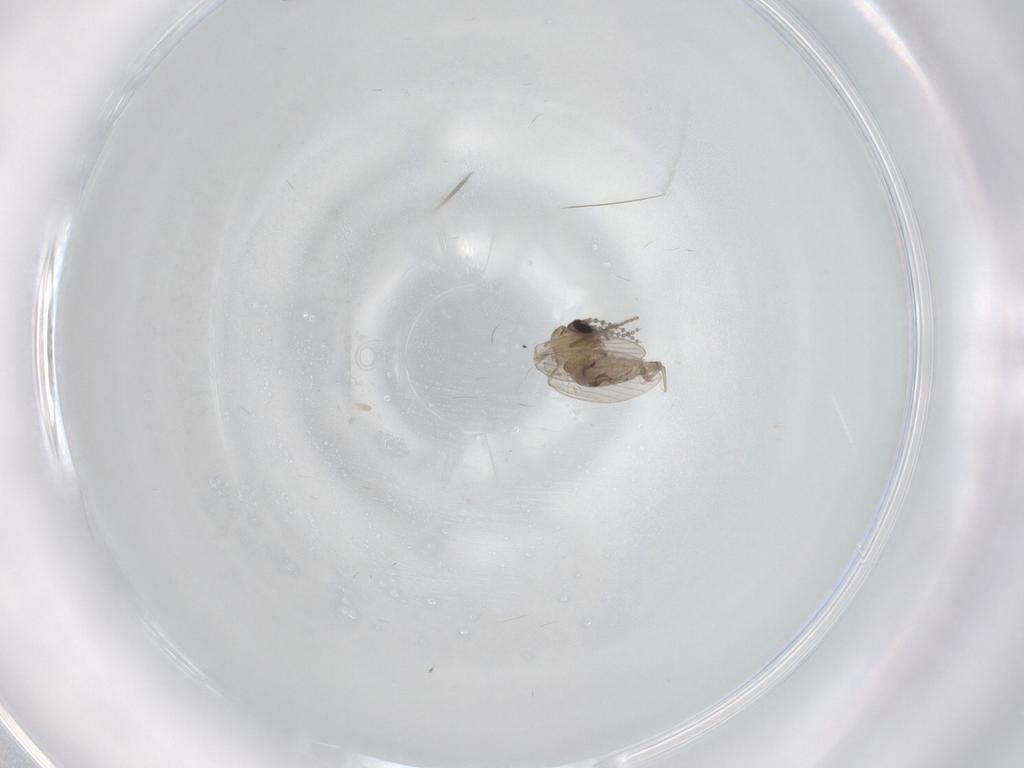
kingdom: Animalia
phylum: Arthropoda
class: Insecta
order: Diptera
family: Psychodidae
